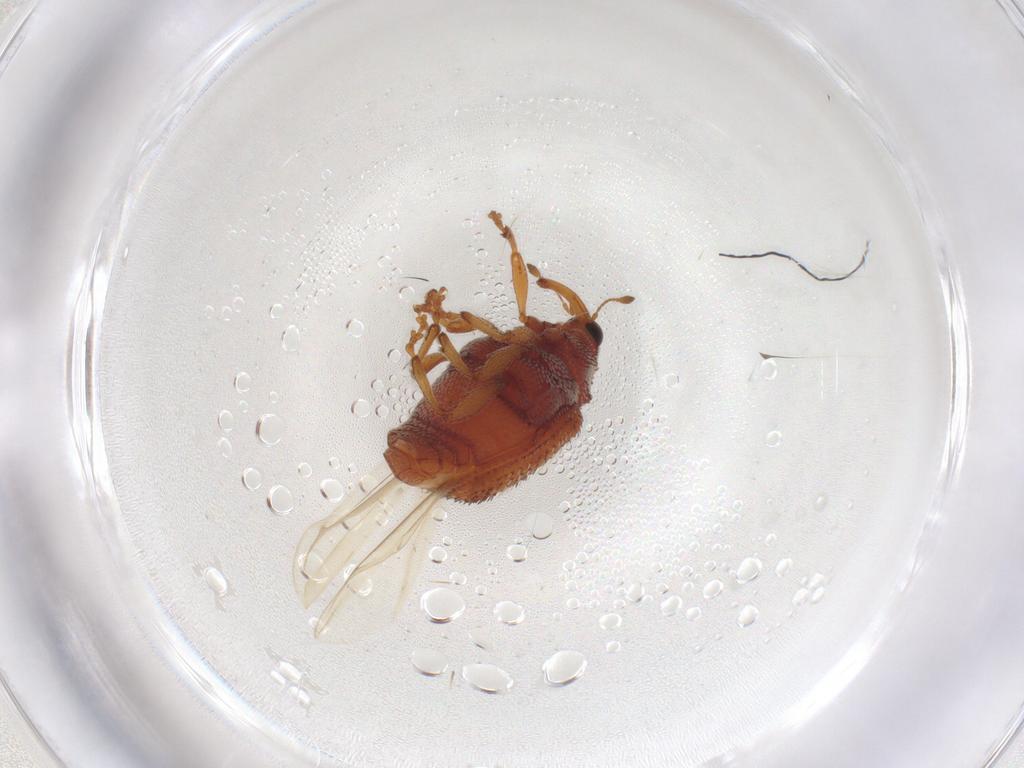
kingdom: Animalia
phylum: Arthropoda
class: Insecta
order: Coleoptera
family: Curculionidae
